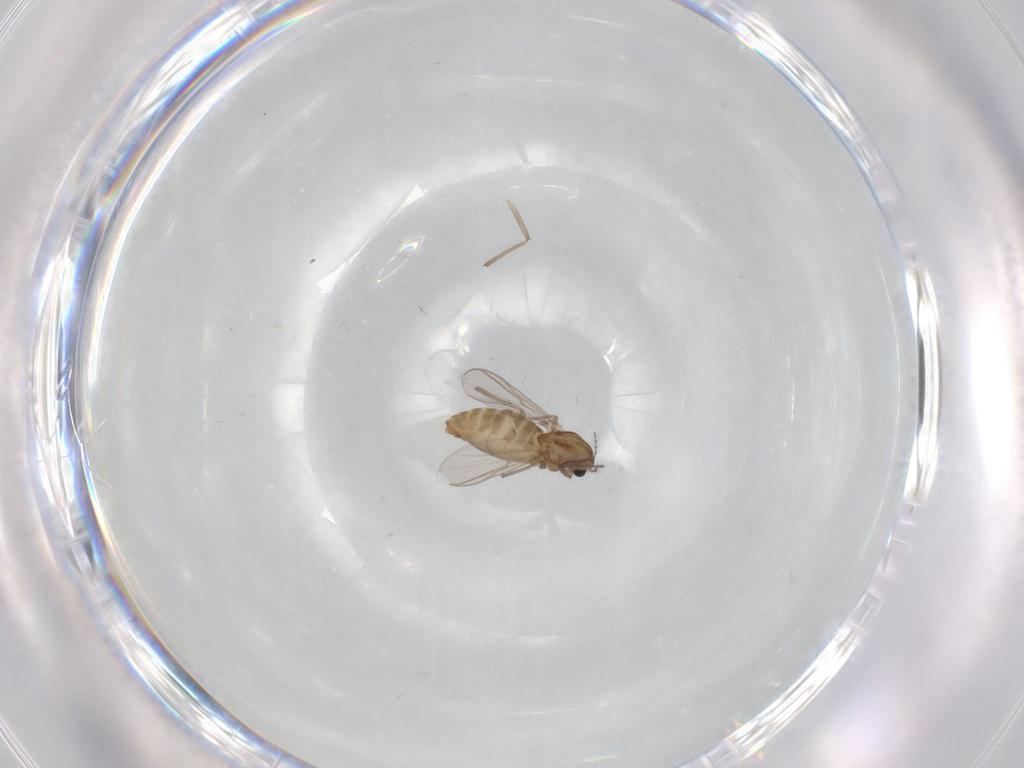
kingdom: Animalia
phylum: Arthropoda
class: Insecta
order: Diptera
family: Chironomidae
